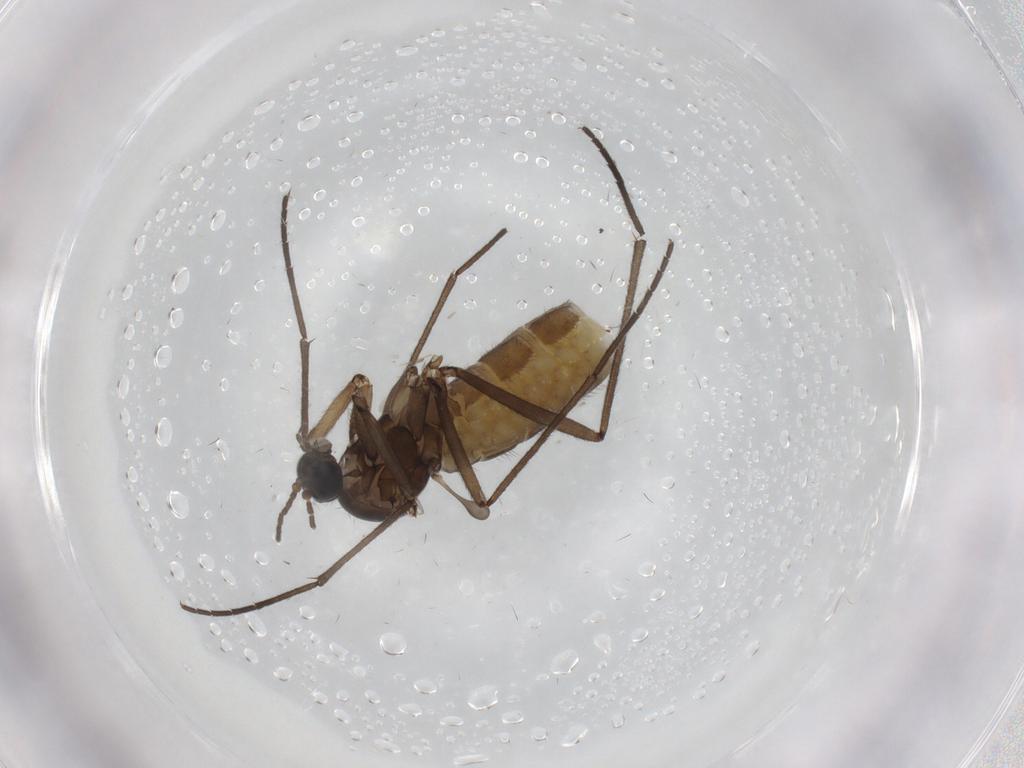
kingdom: Animalia
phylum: Arthropoda
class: Insecta
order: Diptera
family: Sciaridae
